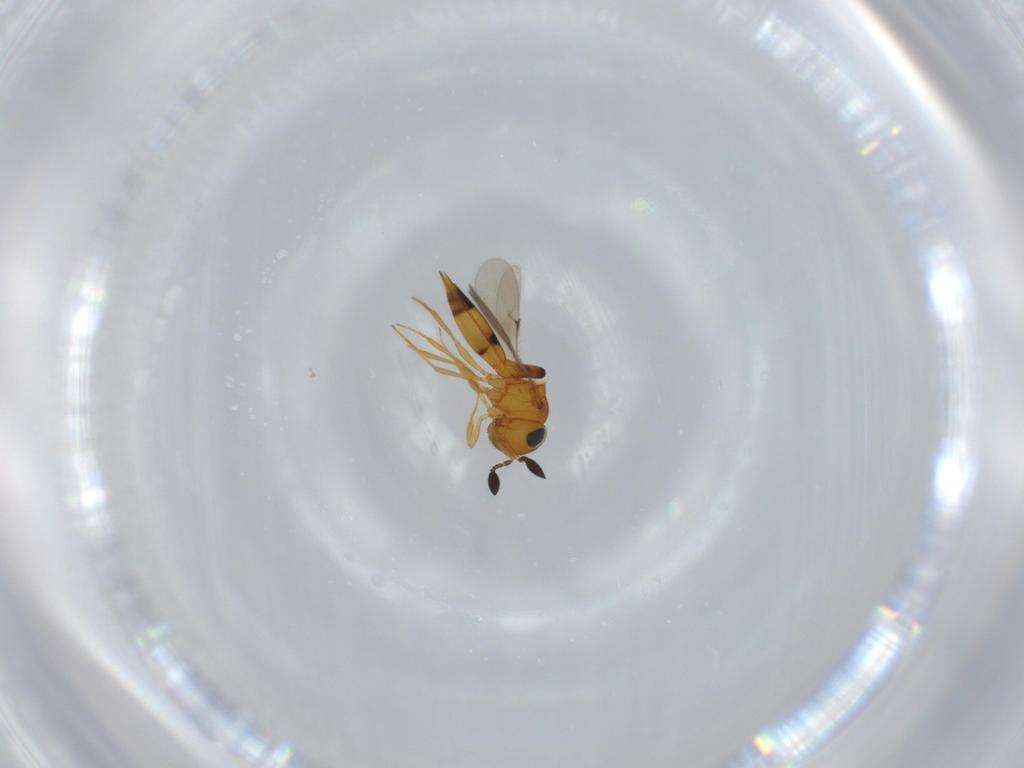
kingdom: Animalia
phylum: Arthropoda
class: Insecta
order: Hymenoptera
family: Scelionidae
